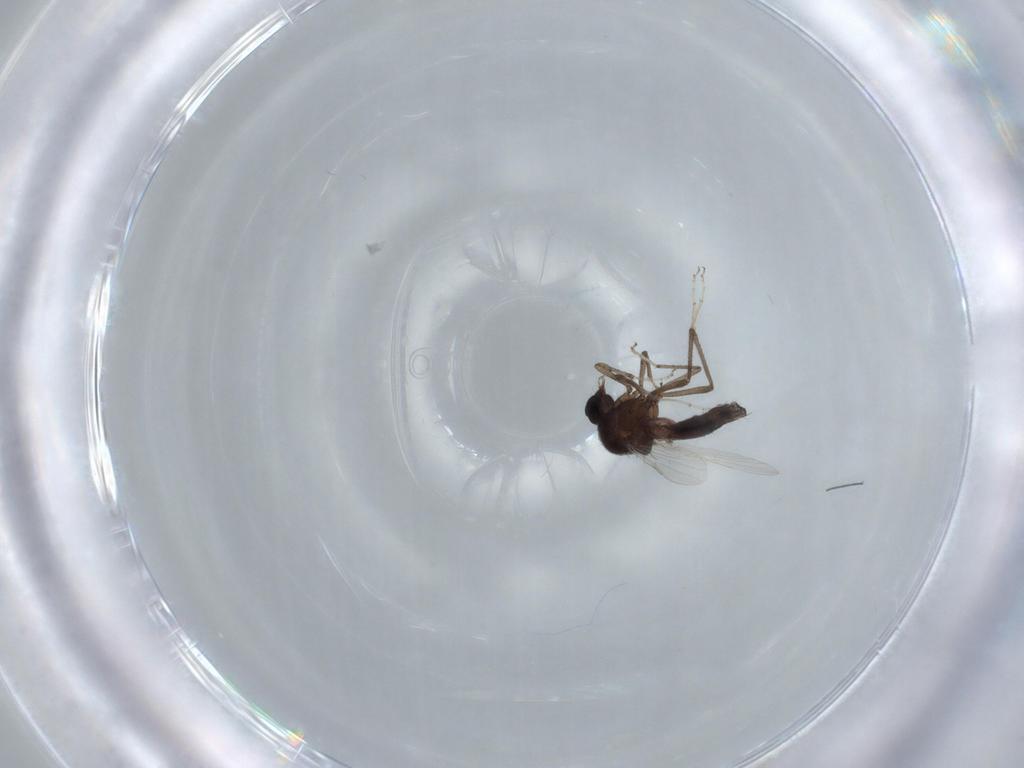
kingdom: Animalia
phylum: Arthropoda
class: Insecta
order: Diptera
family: Ceratopogonidae
